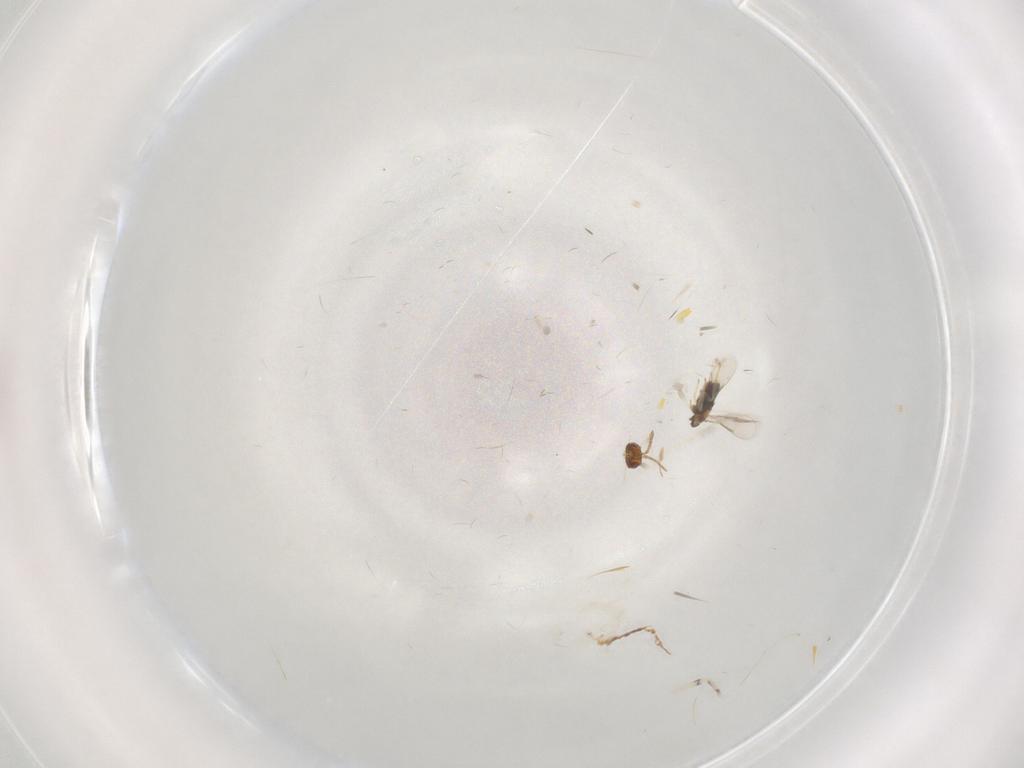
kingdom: Animalia
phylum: Arthropoda
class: Insecta
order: Hymenoptera
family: Aphelinidae
